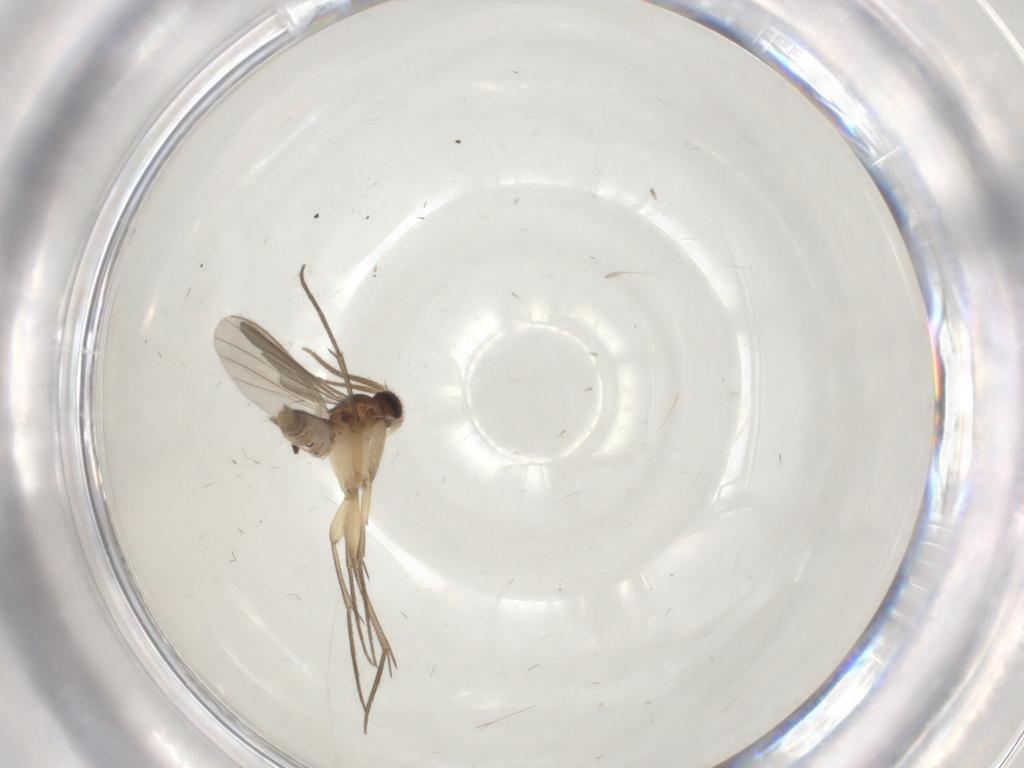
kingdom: Animalia
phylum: Arthropoda
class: Insecta
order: Diptera
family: Mycetophilidae
